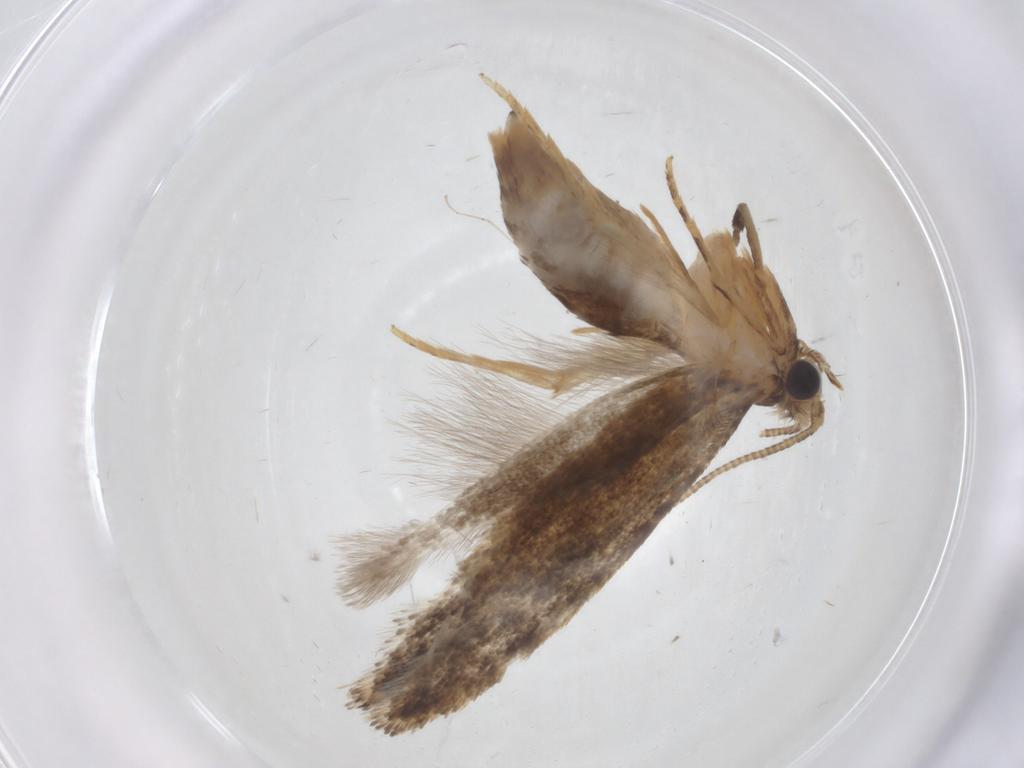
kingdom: Animalia
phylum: Arthropoda
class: Insecta
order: Lepidoptera
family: Tineidae
